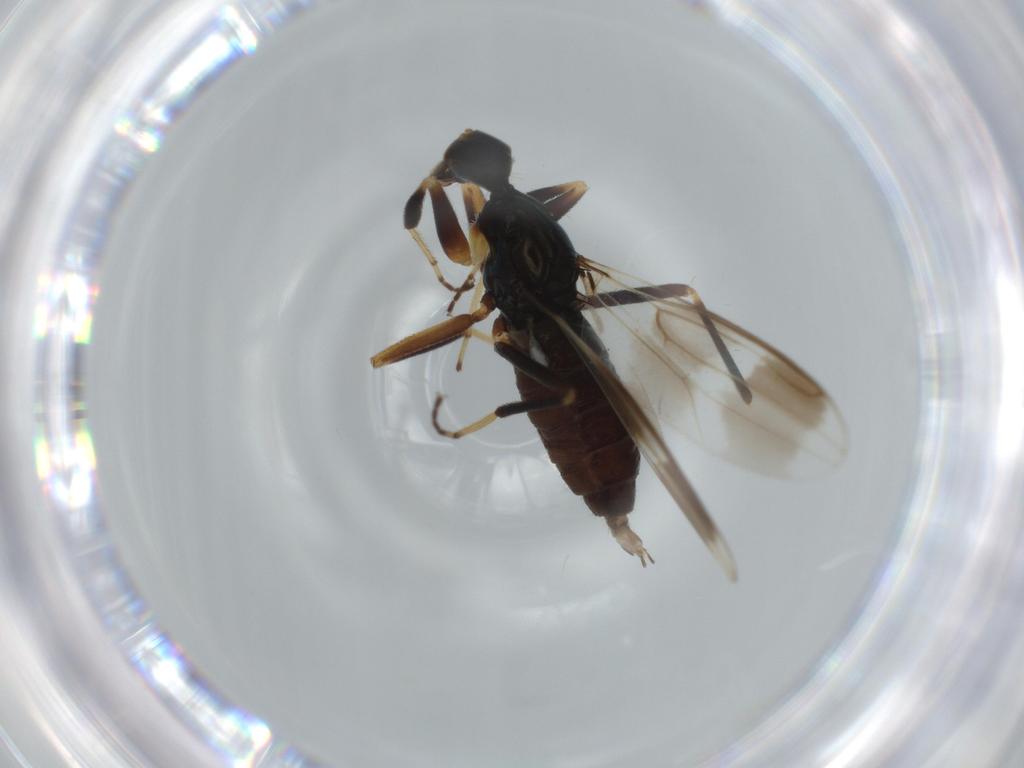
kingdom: Animalia
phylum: Arthropoda
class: Insecta
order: Diptera
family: Hybotidae
